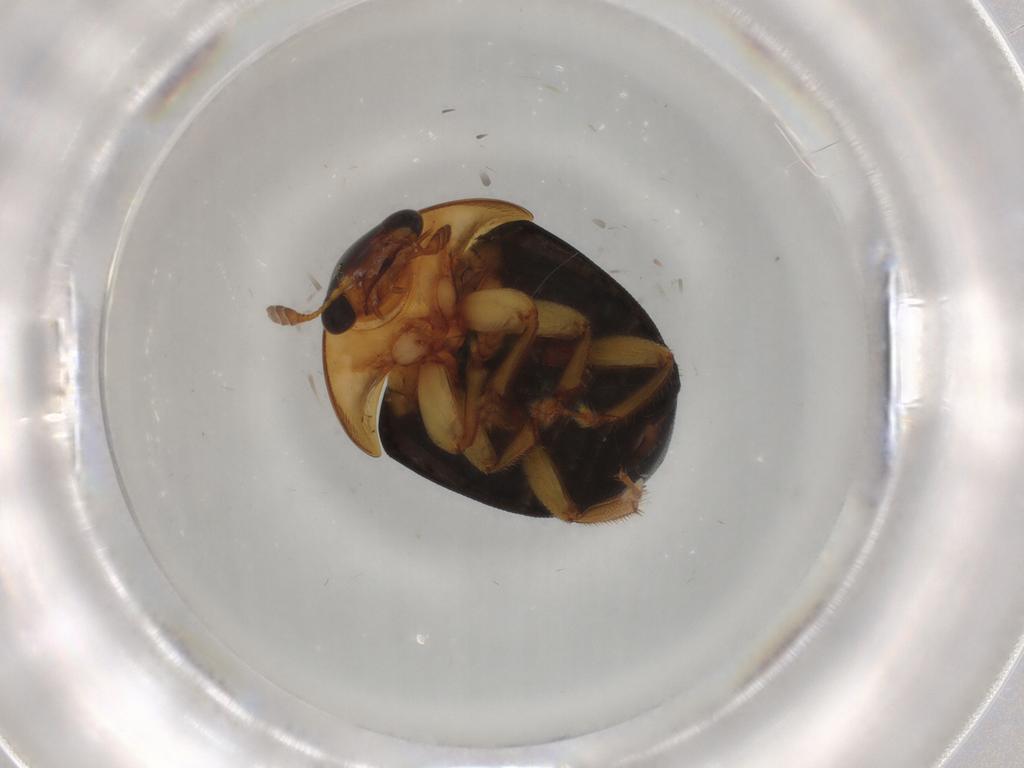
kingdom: Animalia
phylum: Arthropoda
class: Insecta
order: Coleoptera
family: Nitidulidae
